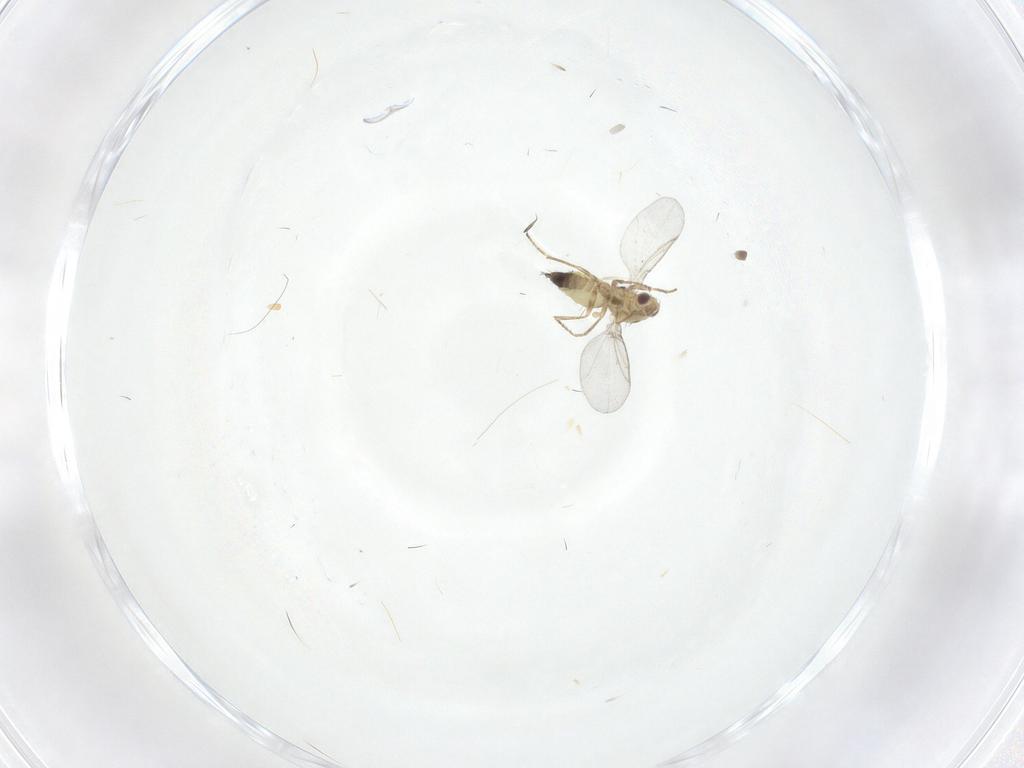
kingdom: Animalia
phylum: Arthropoda
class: Insecta
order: Diptera
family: Agromyzidae
